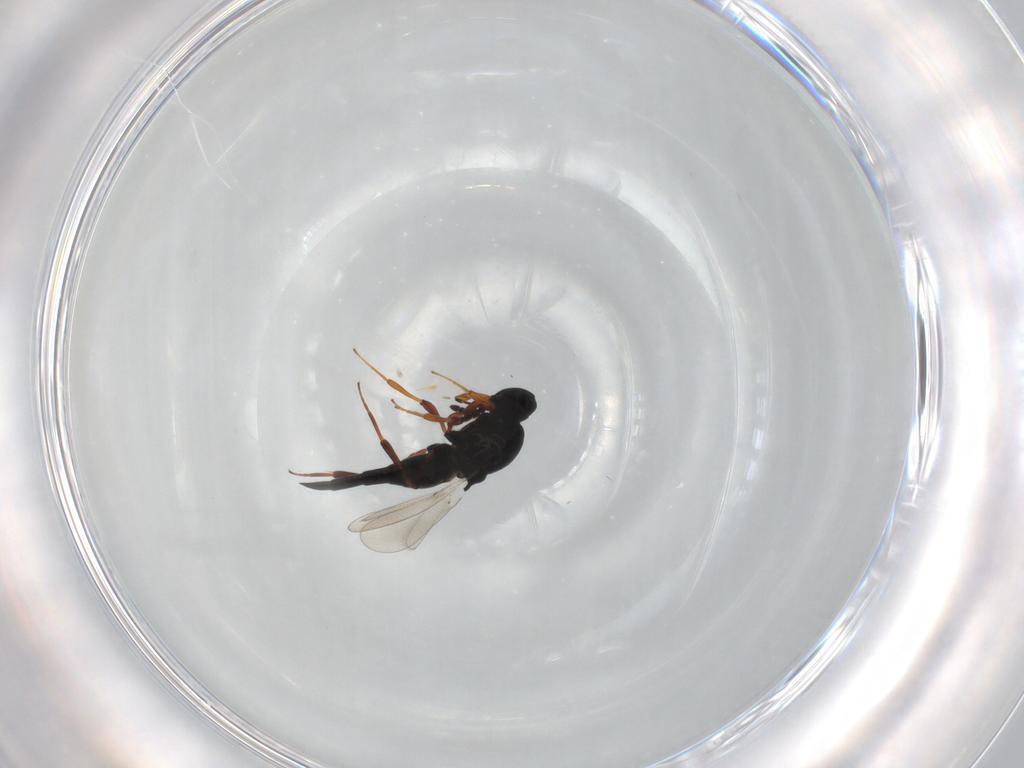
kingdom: Animalia
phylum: Arthropoda
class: Insecta
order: Hymenoptera
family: Platygastridae
